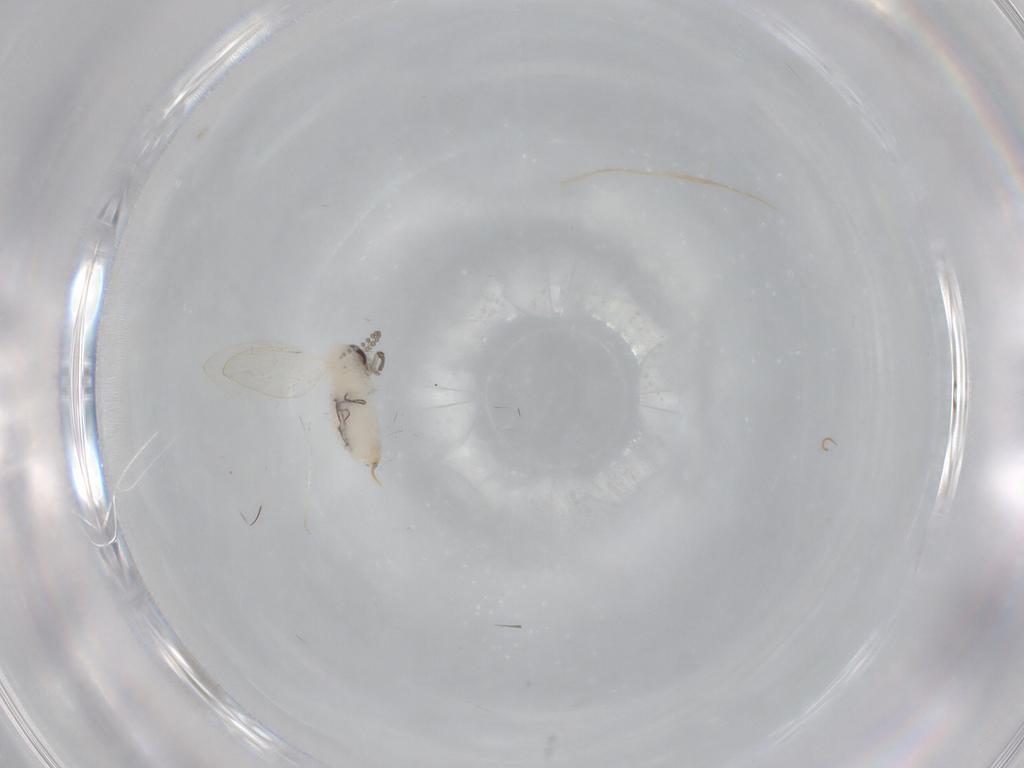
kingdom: Animalia
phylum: Arthropoda
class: Insecta
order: Diptera
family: Psychodidae
